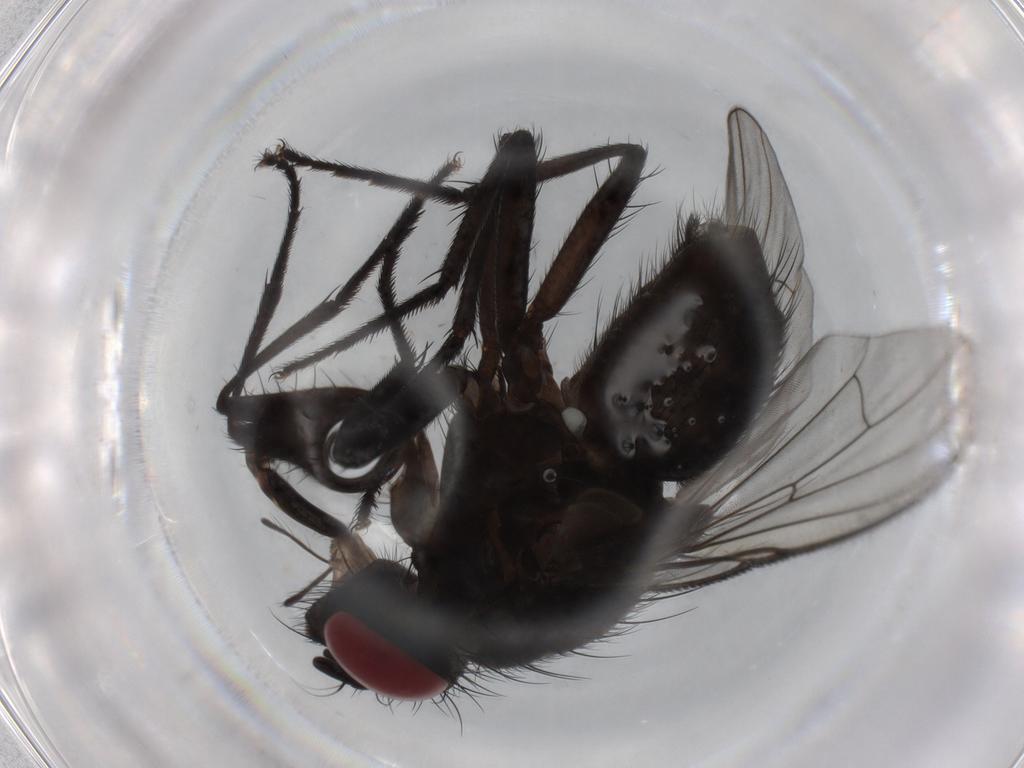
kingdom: Animalia
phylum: Arthropoda
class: Insecta
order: Diptera
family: Muscidae
